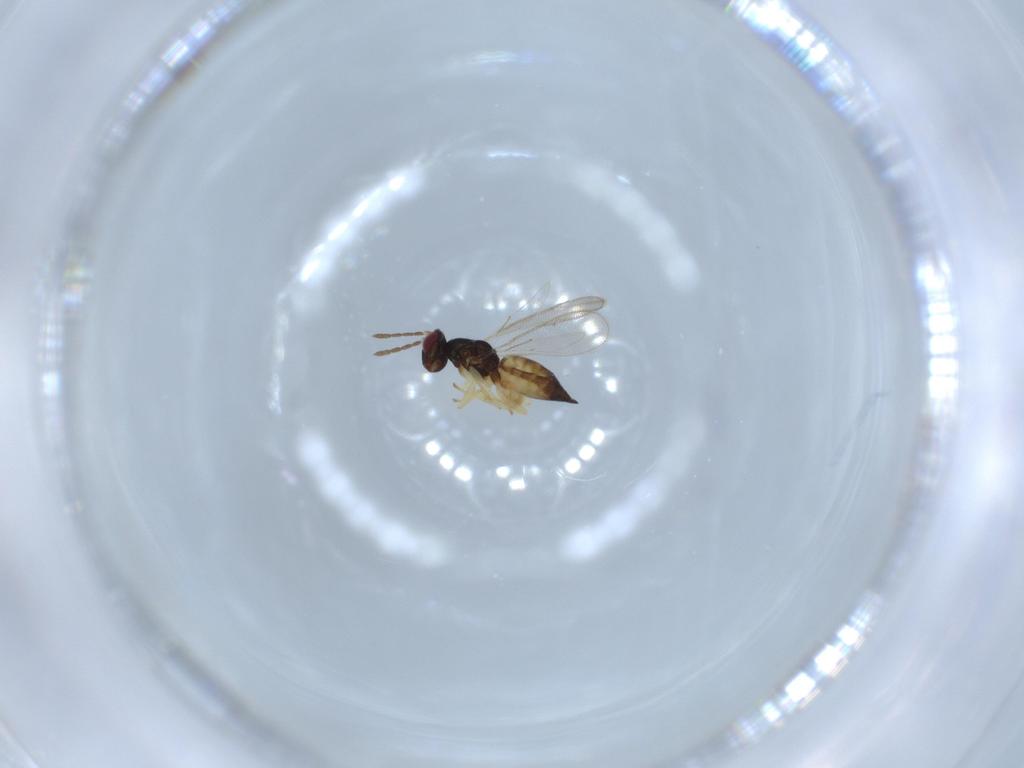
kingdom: Animalia
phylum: Arthropoda
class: Insecta
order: Hymenoptera
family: Eulophidae
